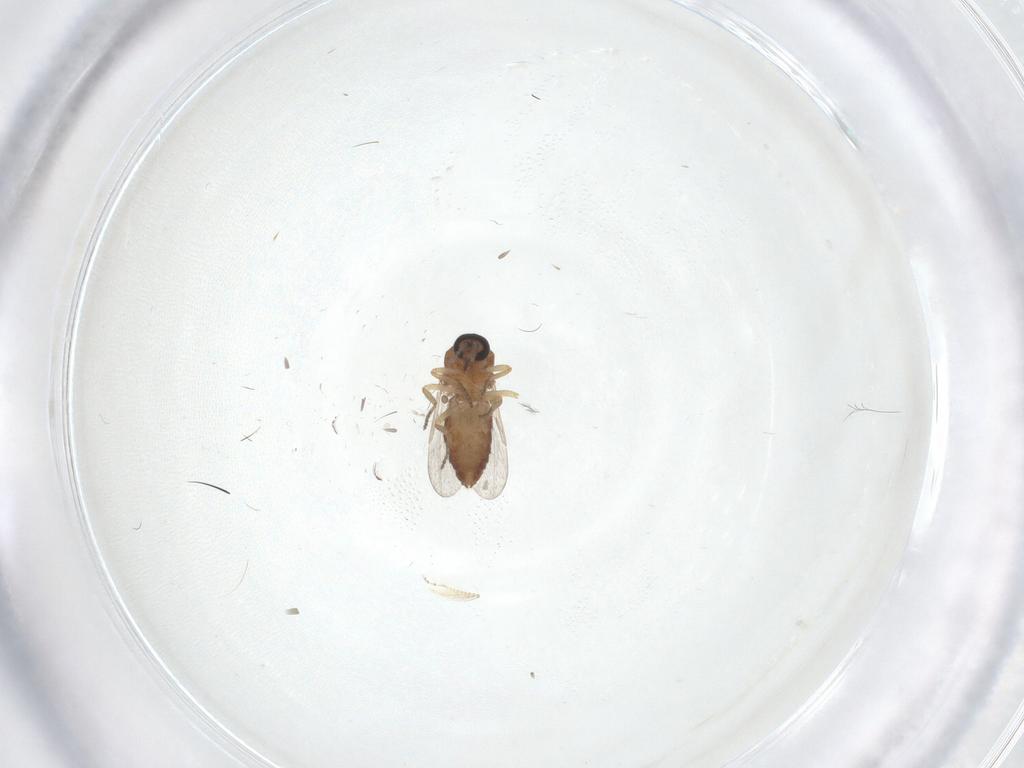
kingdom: Animalia
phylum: Arthropoda
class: Insecta
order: Diptera
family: Ceratopogonidae
